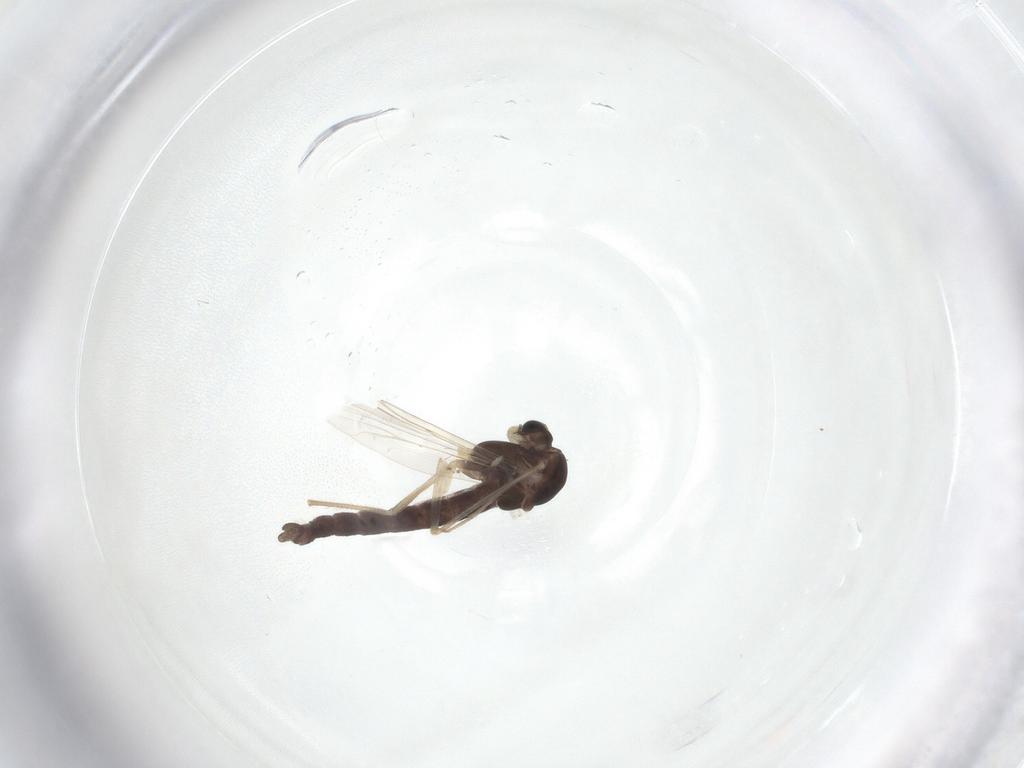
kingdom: Animalia
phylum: Arthropoda
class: Insecta
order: Diptera
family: Chironomidae
